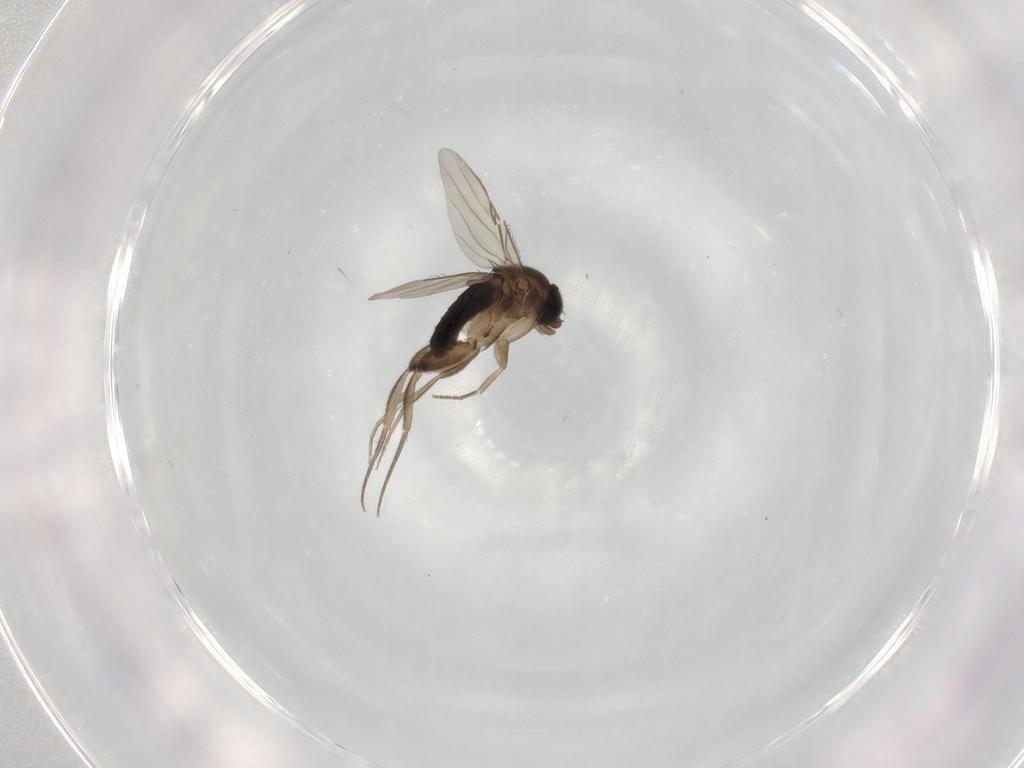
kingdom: Animalia
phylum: Arthropoda
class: Insecta
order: Diptera
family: Phoridae
